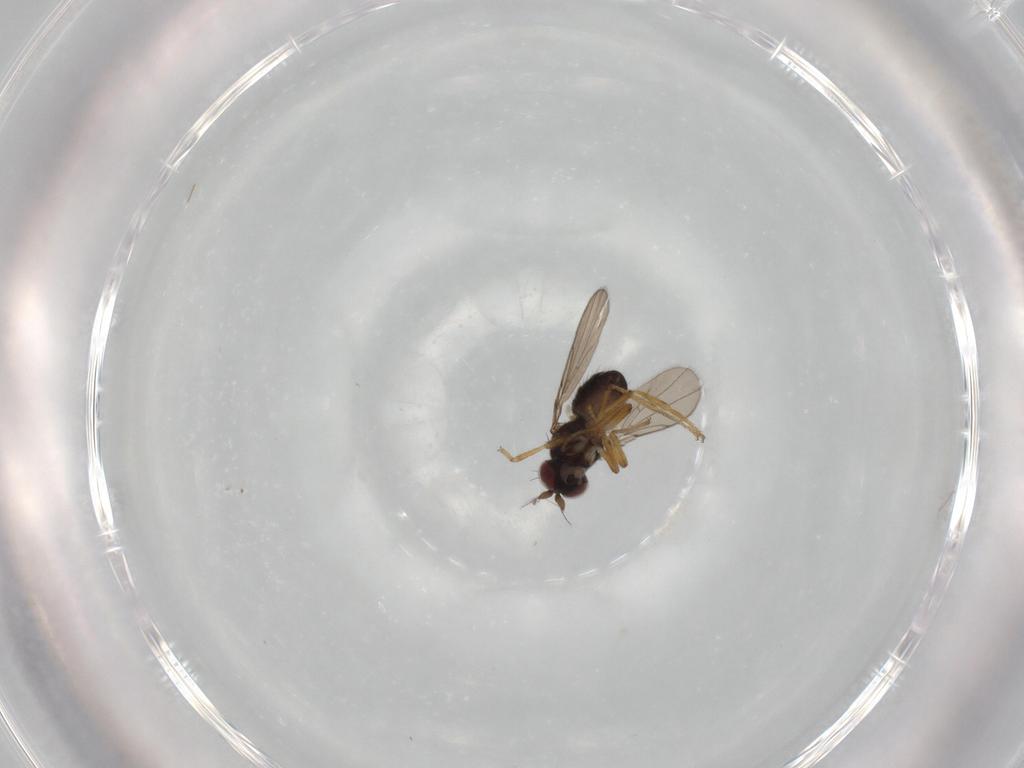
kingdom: Animalia
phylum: Arthropoda
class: Insecta
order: Diptera
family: Ephydridae
